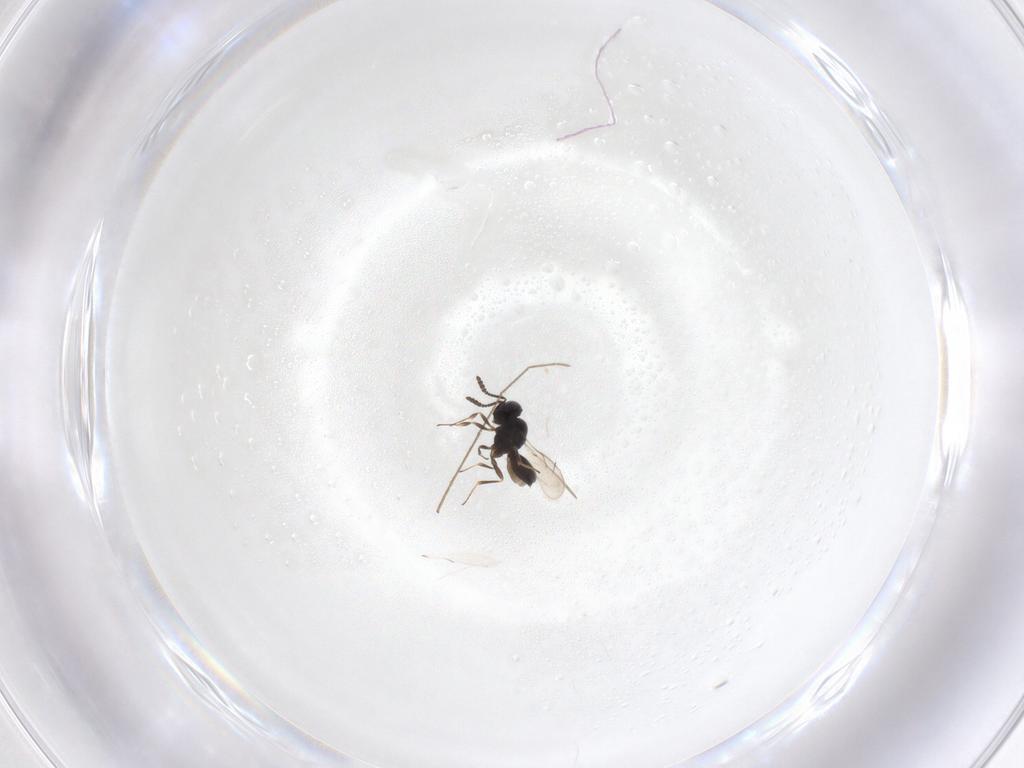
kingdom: Animalia
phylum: Arthropoda
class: Insecta
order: Hymenoptera
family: Scelionidae
